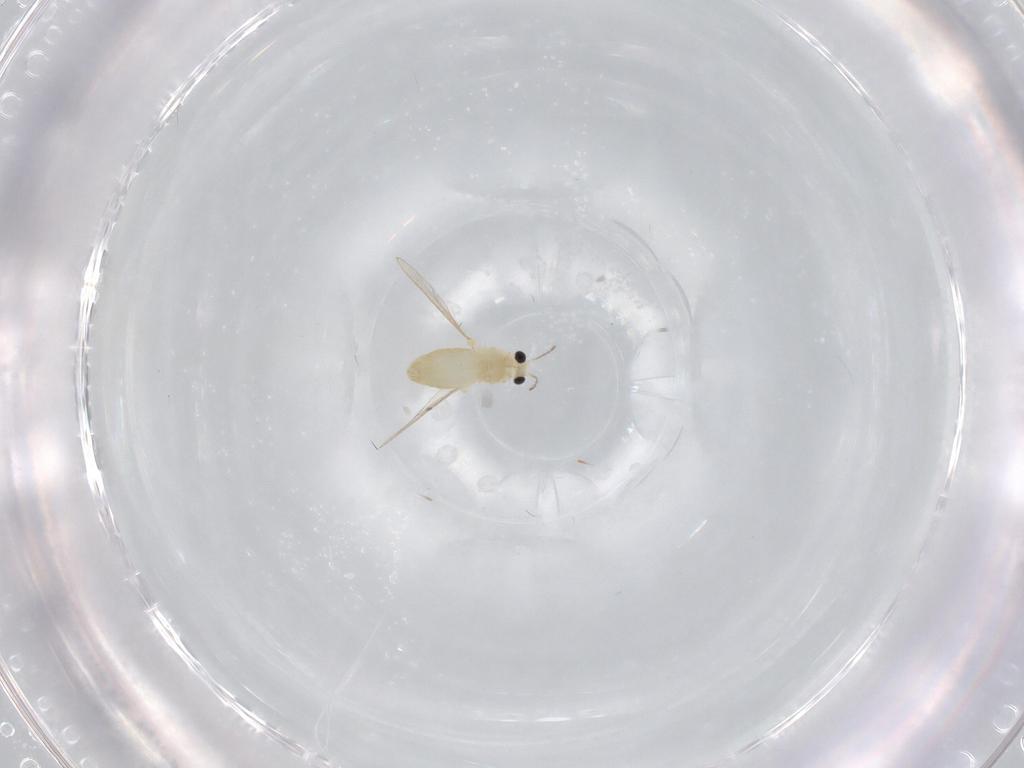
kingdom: Animalia
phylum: Arthropoda
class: Insecta
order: Diptera
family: Chironomidae
